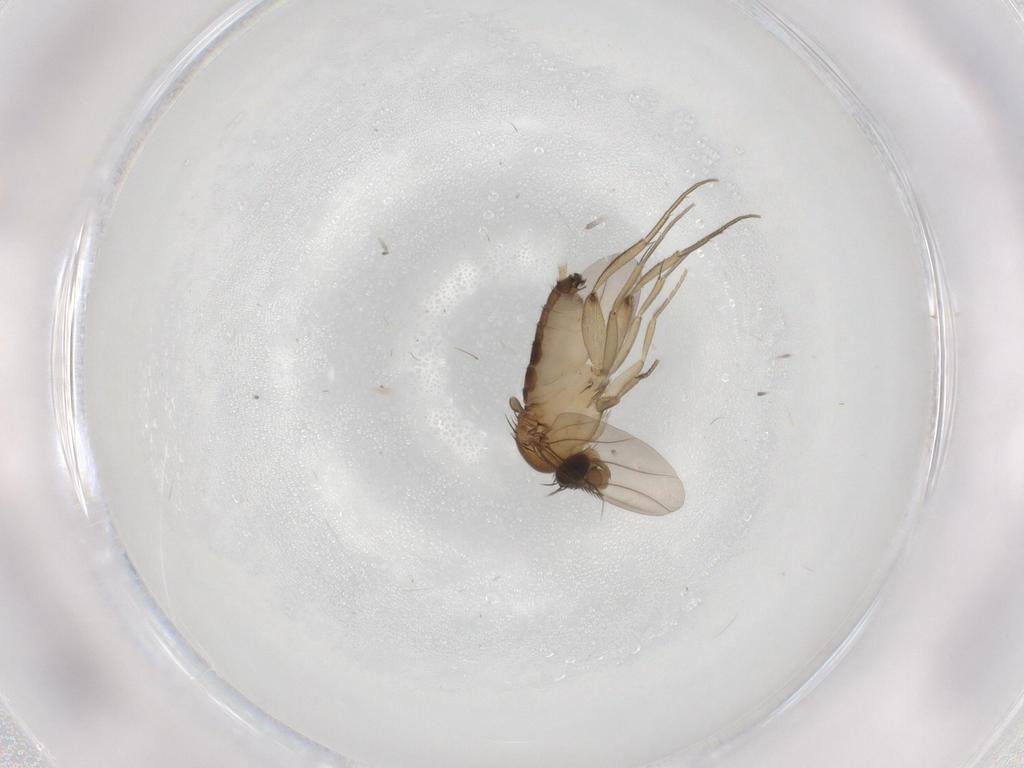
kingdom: Animalia
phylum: Arthropoda
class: Insecta
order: Diptera
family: Phoridae
